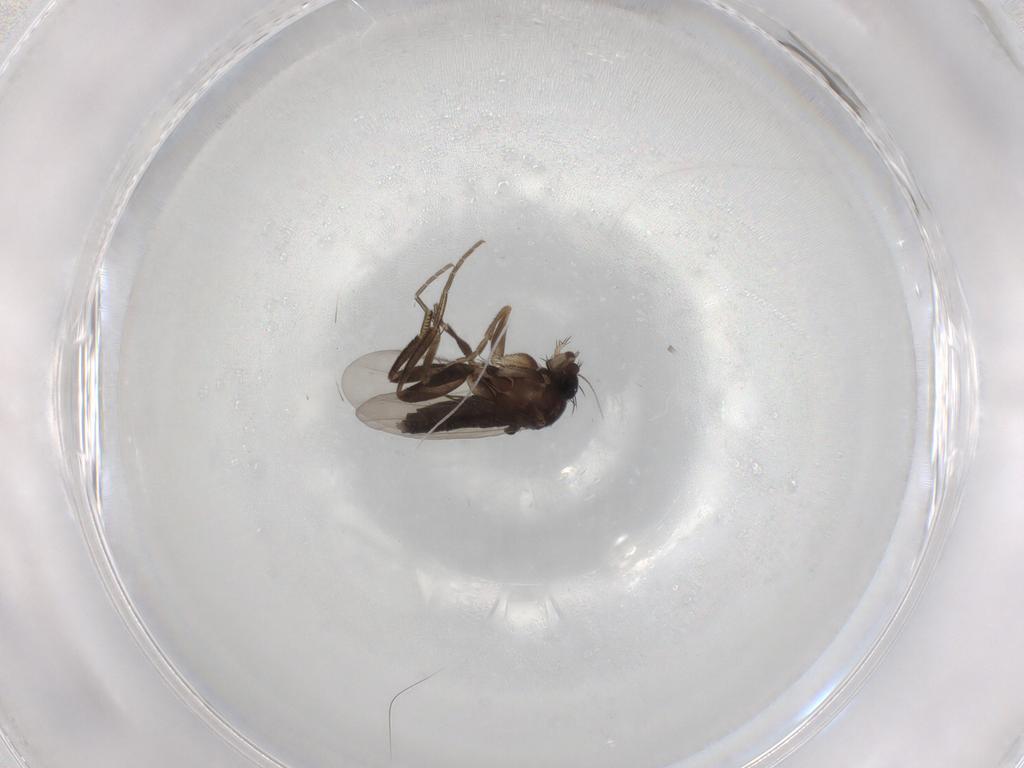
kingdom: Animalia
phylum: Arthropoda
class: Insecta
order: Diptera
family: Phoridae
